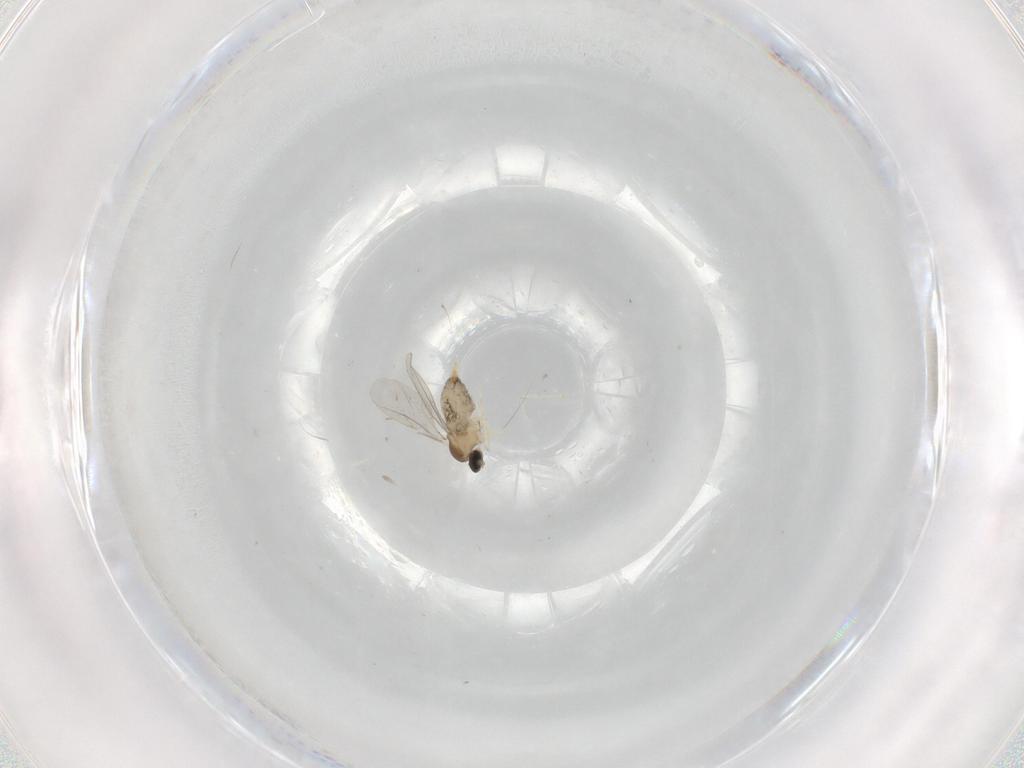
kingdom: Animalia
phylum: Arthropoda
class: Insecta
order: Diptera
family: Cecidomyiidae
